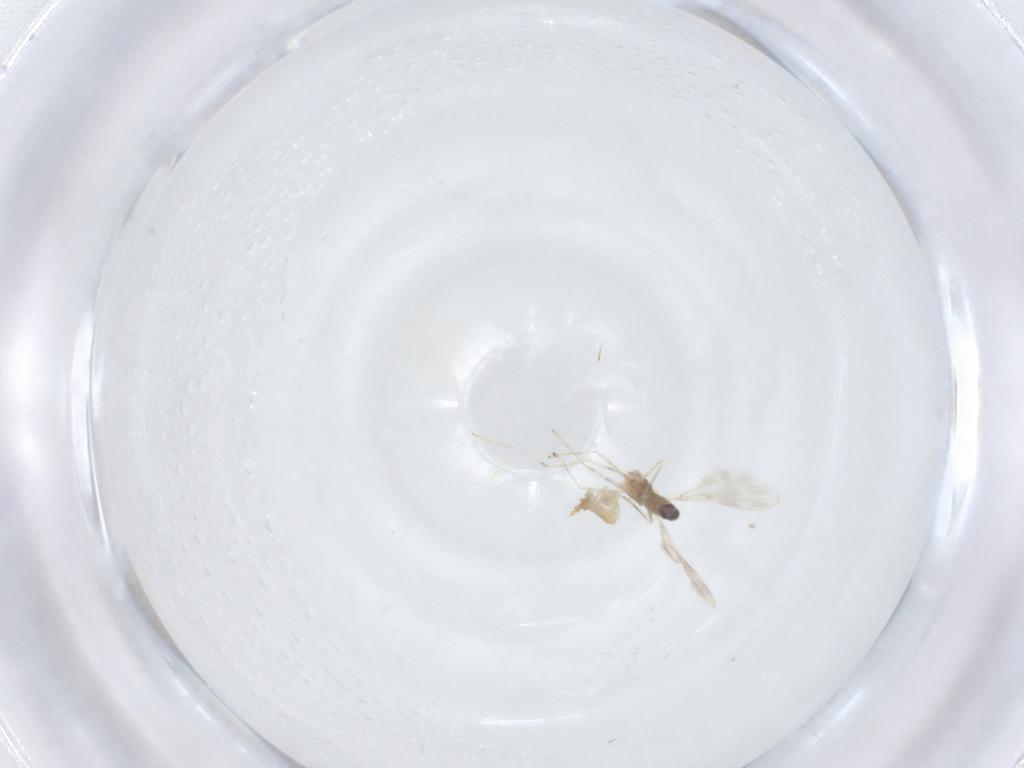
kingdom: Animalia
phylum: Arthropoda
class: Insecta
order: Diptera
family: Cecidomyiidae
